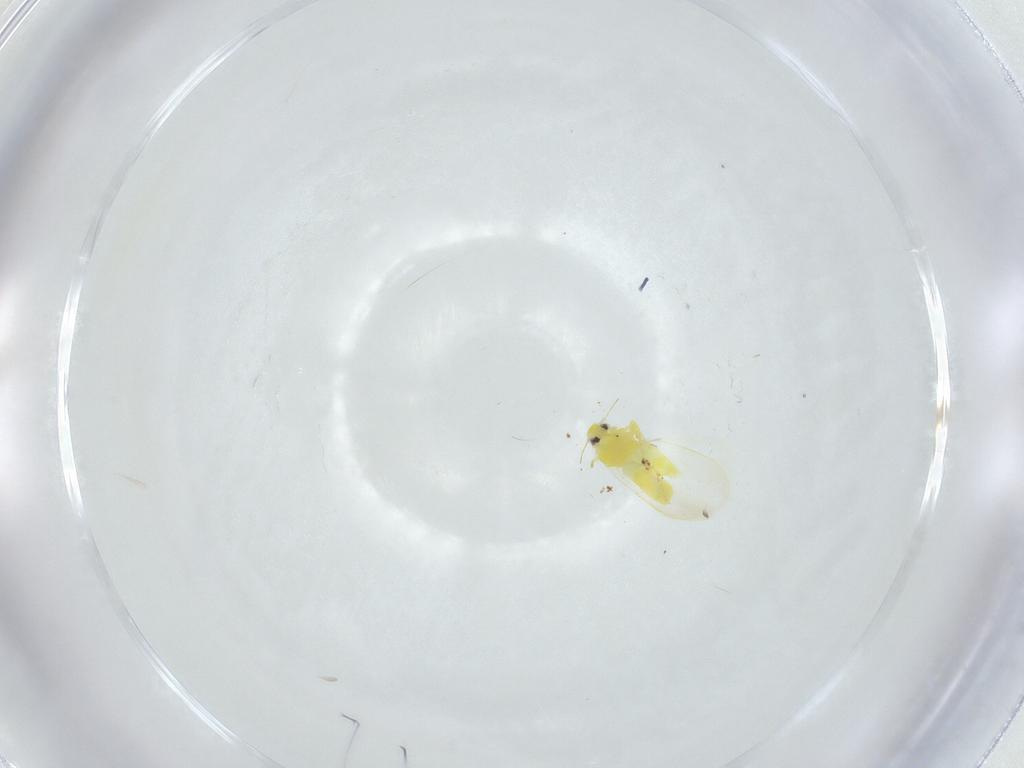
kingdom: Animalia
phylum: Arthropoda
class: Insecta
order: Hemiptera
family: Aleyrodidae
